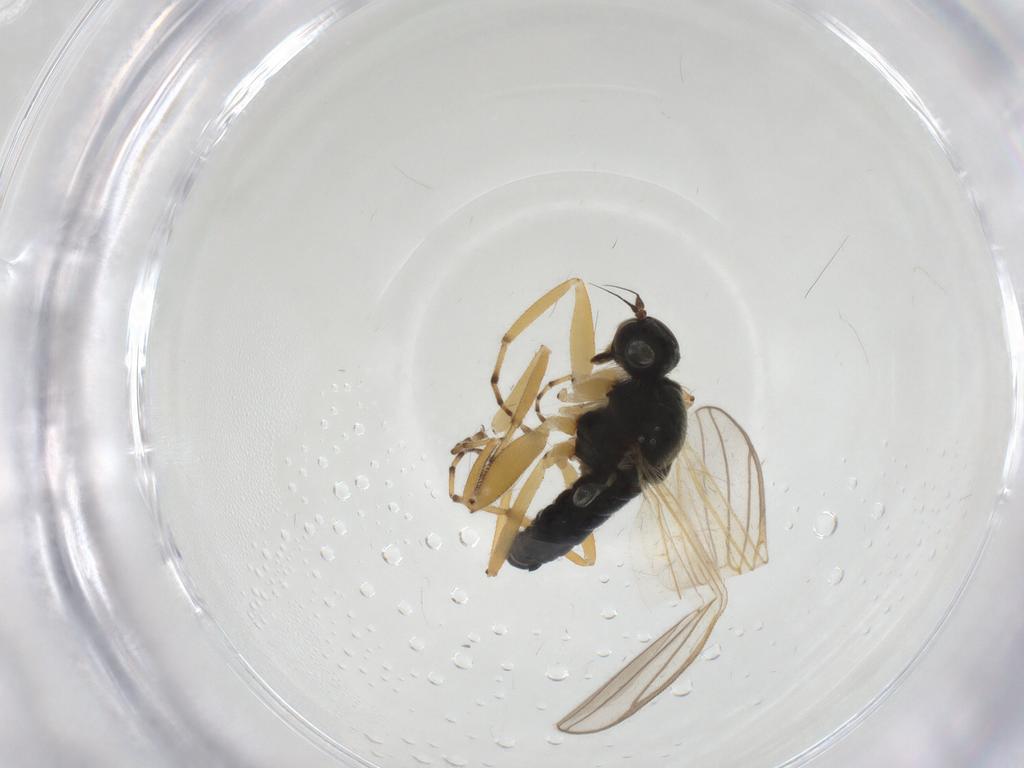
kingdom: Animalia
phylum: Arthropoda
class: Insecta
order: Diptera
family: Hybotidae
